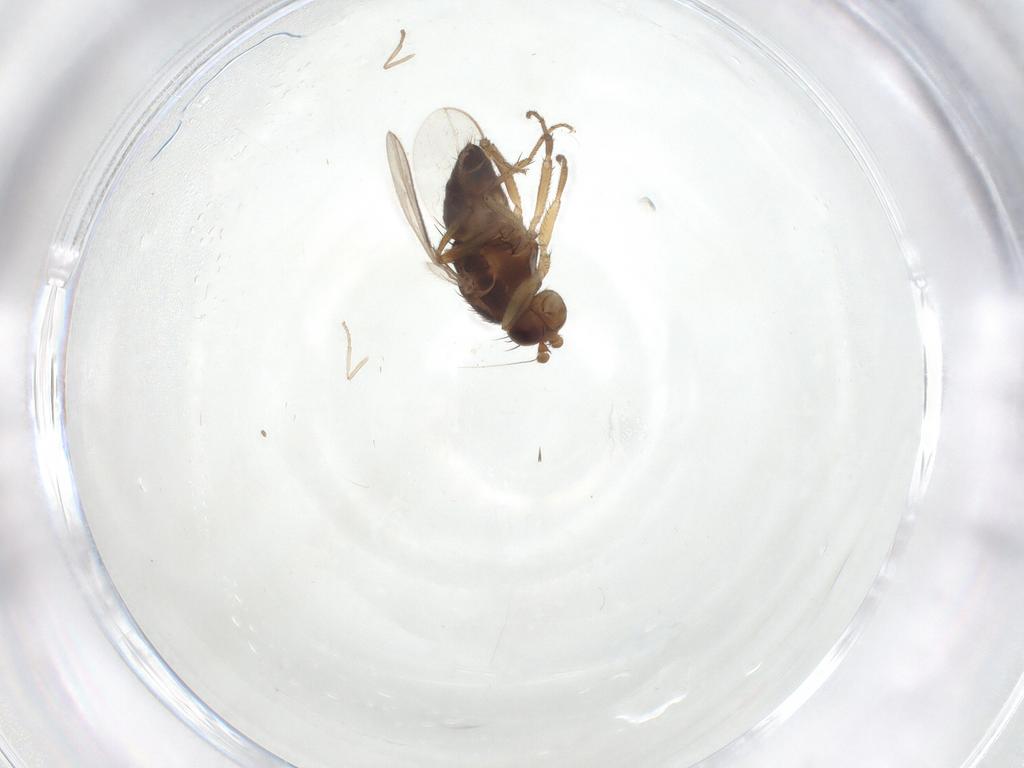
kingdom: Animalia
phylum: Arthropoda
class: Insecta
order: Diptera
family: Sphaeroceridae
